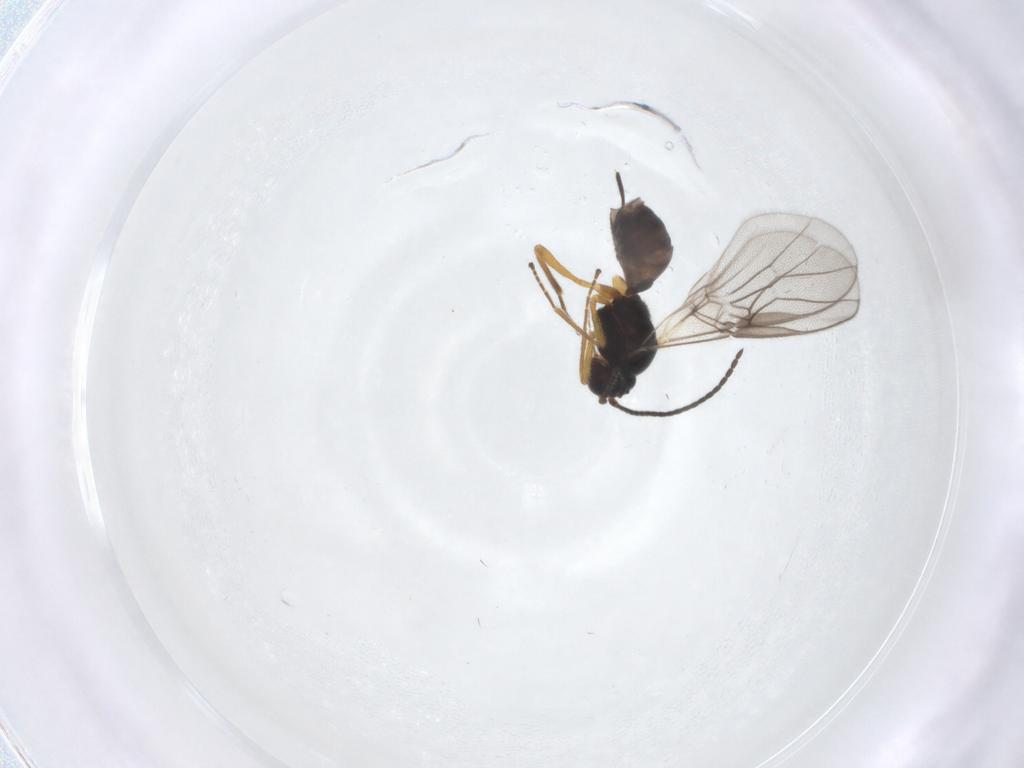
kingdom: Animalia
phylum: Arthropoda
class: Insecta
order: Hymenoptera
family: Braconidae
